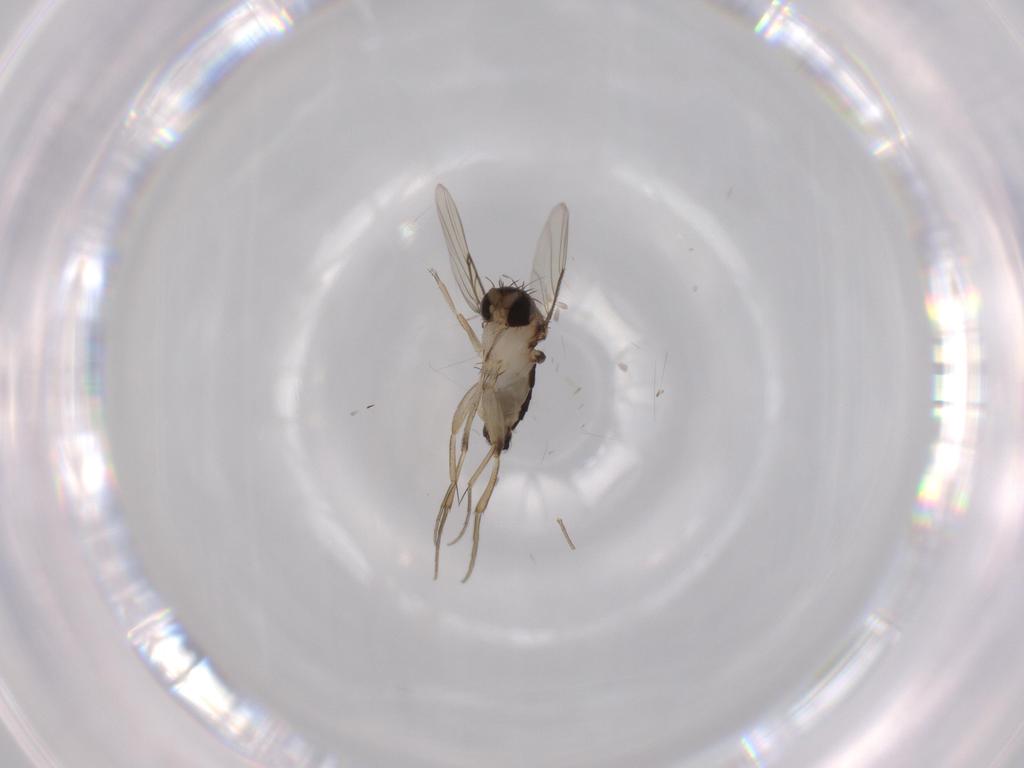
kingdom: Animalia
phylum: Arthropoda
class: Insecta
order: Diptera
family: Phoridae
